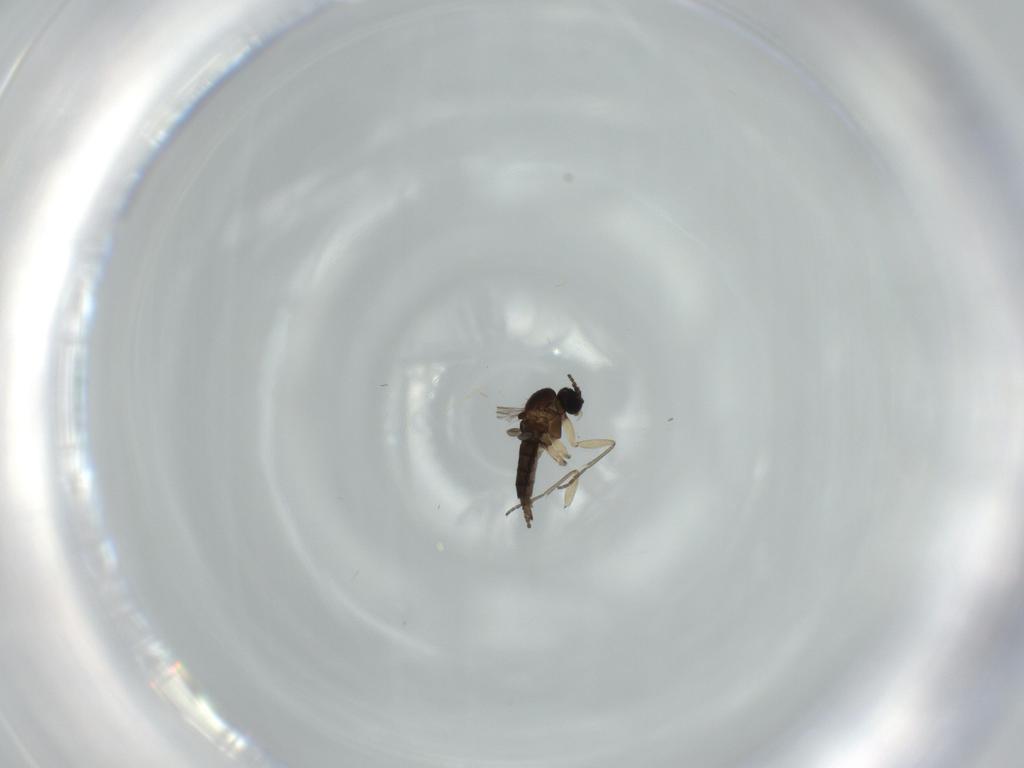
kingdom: Animalia
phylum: Arthropoda
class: Insecta
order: Diptera
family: Sciaridae
